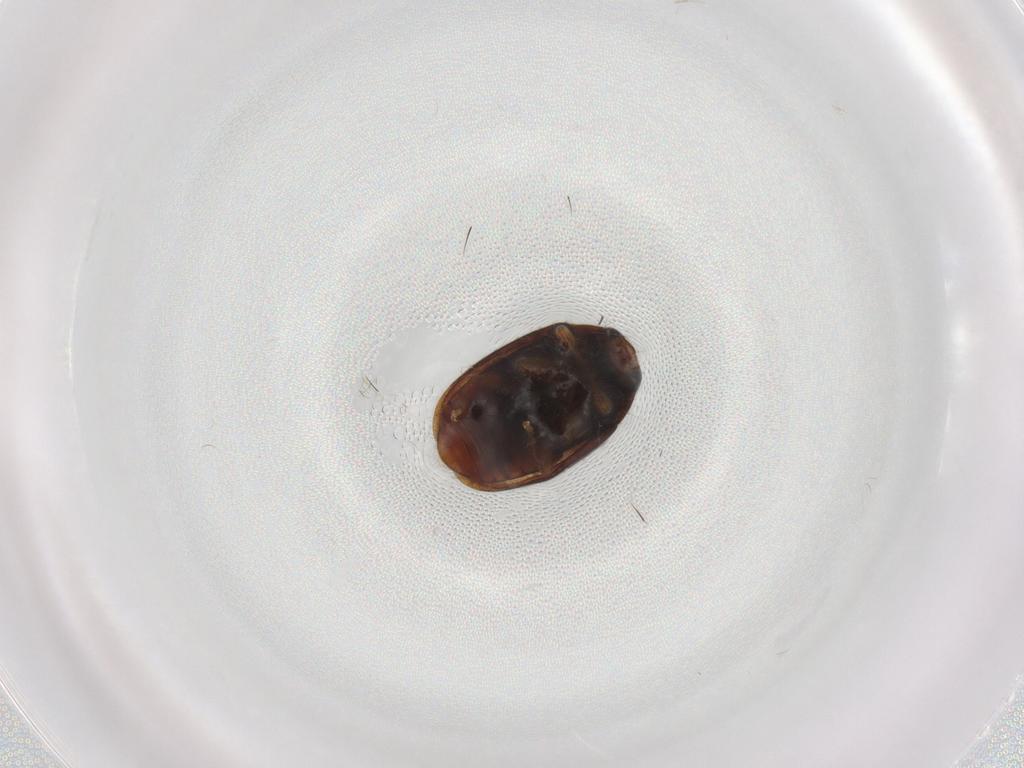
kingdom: Animalia
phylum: Arthropoda
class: Insecta
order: Coleoptera
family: Coccinellidae
